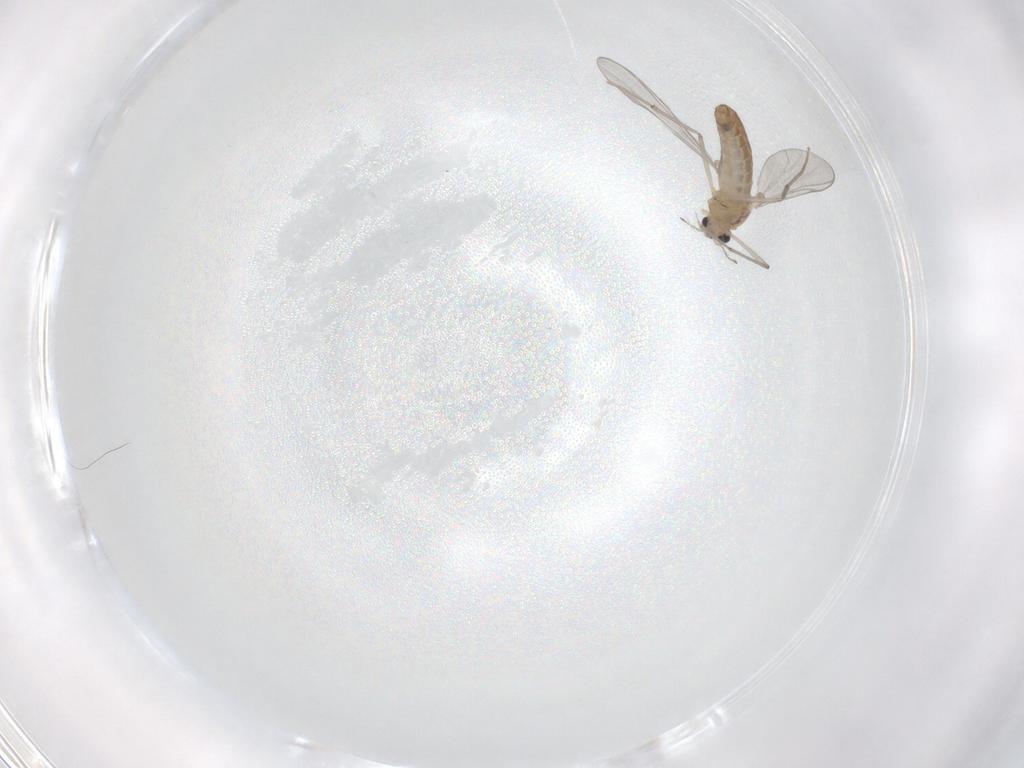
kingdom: Animalia
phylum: Arthropoda
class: Insecta
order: Diptera
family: Chironomidae
